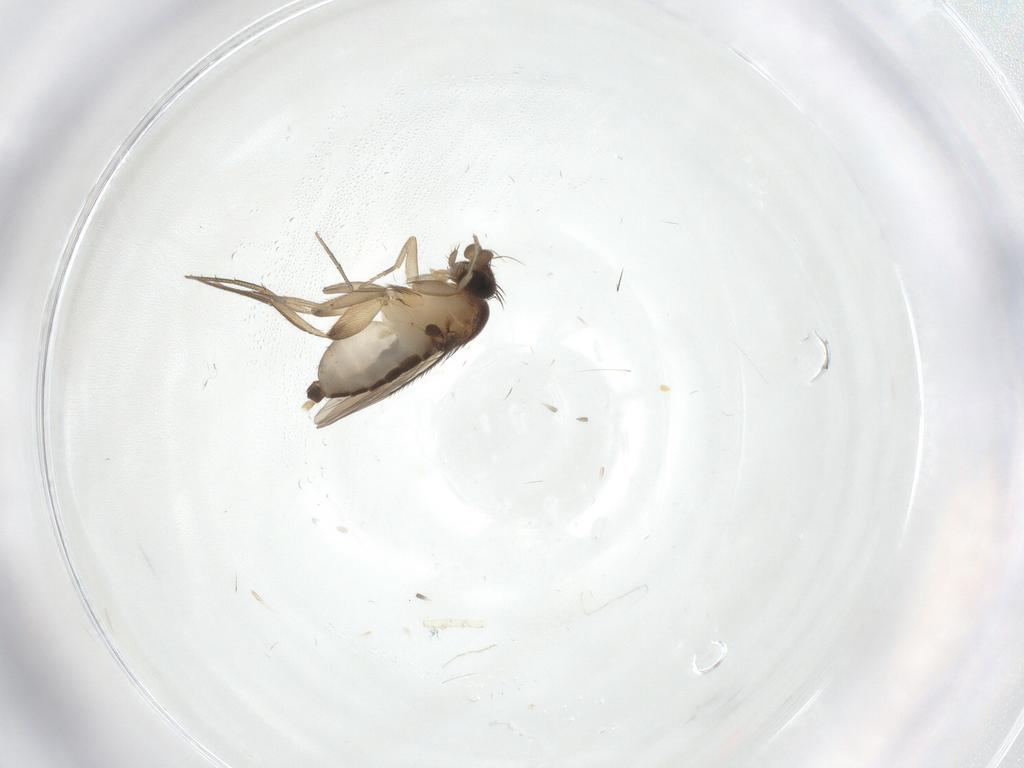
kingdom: Animalia
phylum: Arthropoda
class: Insecta
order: Diptera
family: Phoridae
